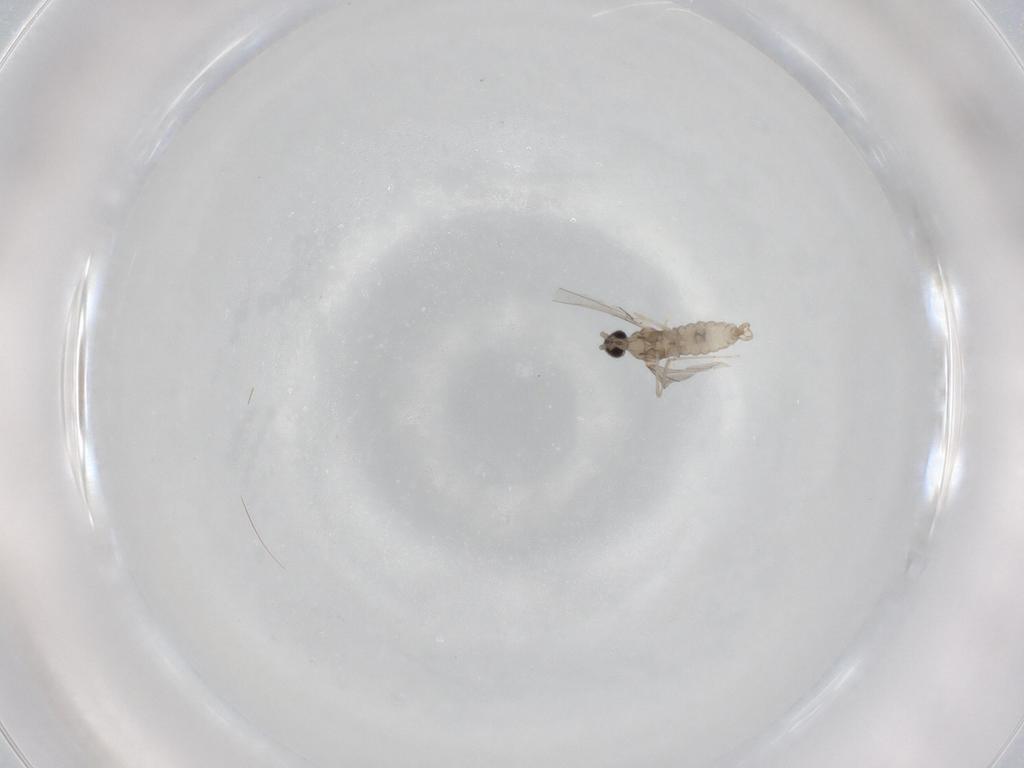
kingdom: Animalia
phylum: Arthropoda
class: Insecta
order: Diptera
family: Cecidomyiidae
